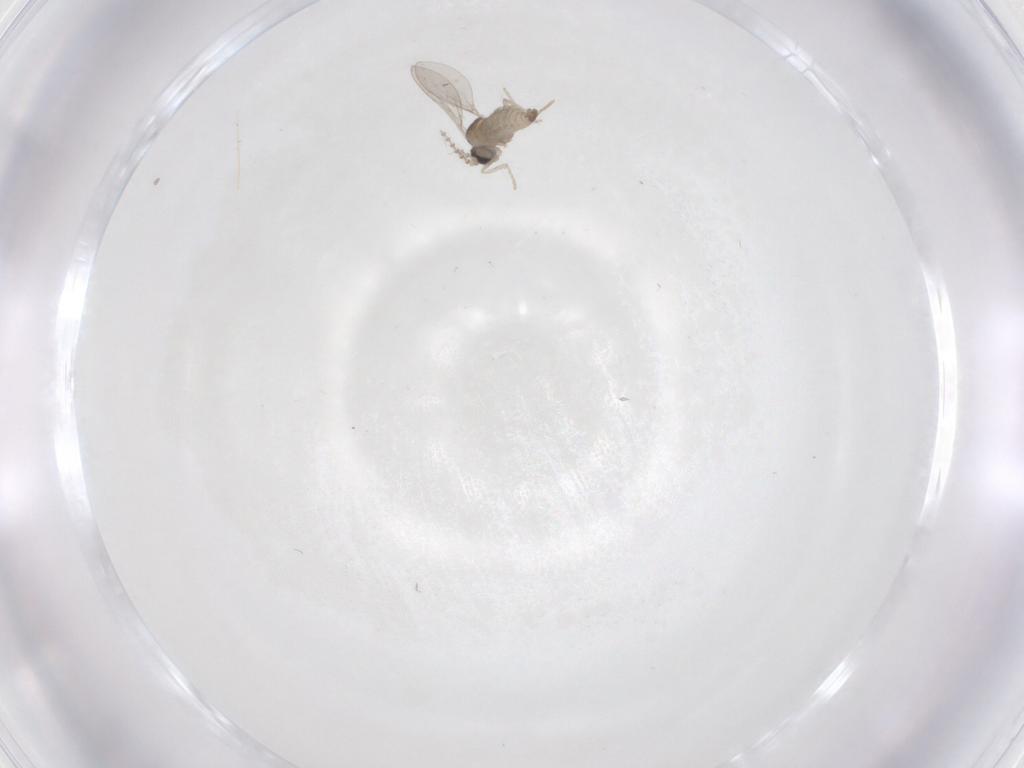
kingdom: Animalia
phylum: Arthropoda
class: Insecta
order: Diptera
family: Cecidomyiidae
